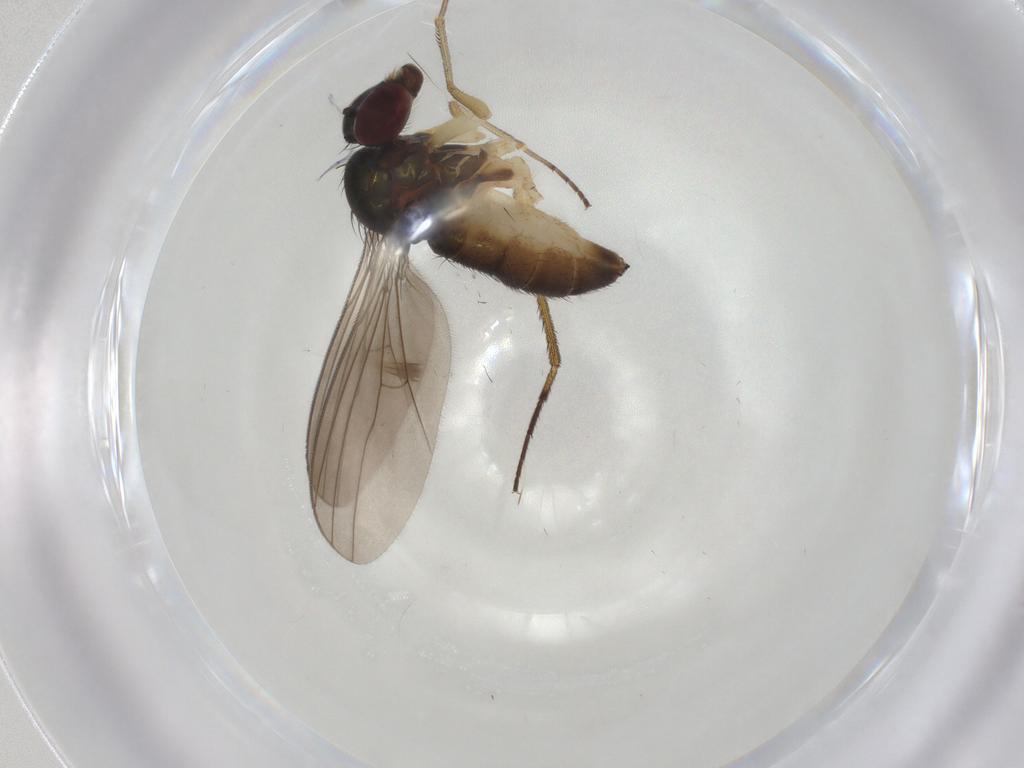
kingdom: Animalia
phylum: Arthropoda
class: Insecta
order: Diptera
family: Dolichopodidae
